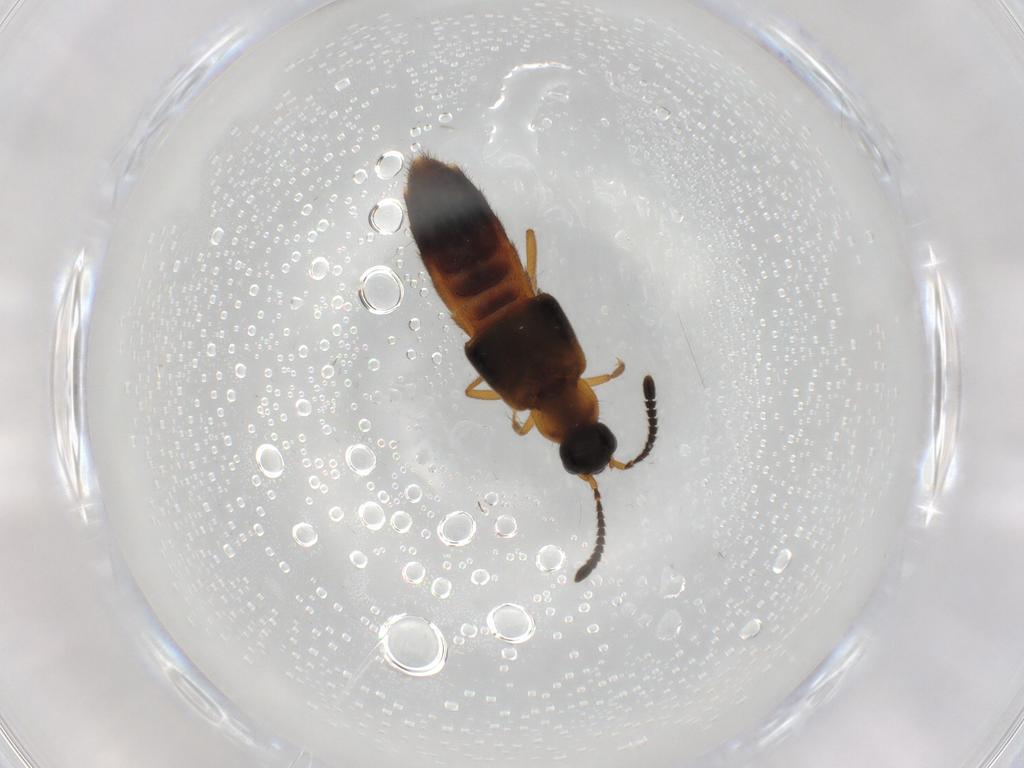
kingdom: Animalia
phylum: Arthropoda
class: Insecta
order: Coleoptera
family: Staphylinidae
